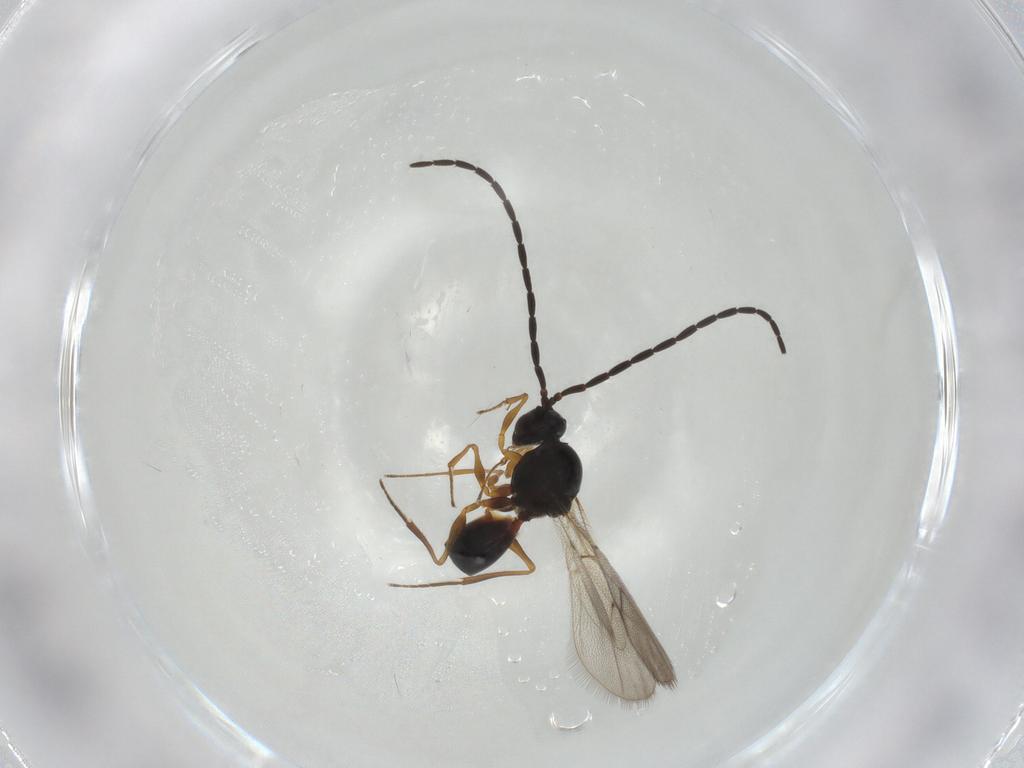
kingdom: Animalia
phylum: Arthropoda
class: Insecta
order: Hymenoptera
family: Figitidae
